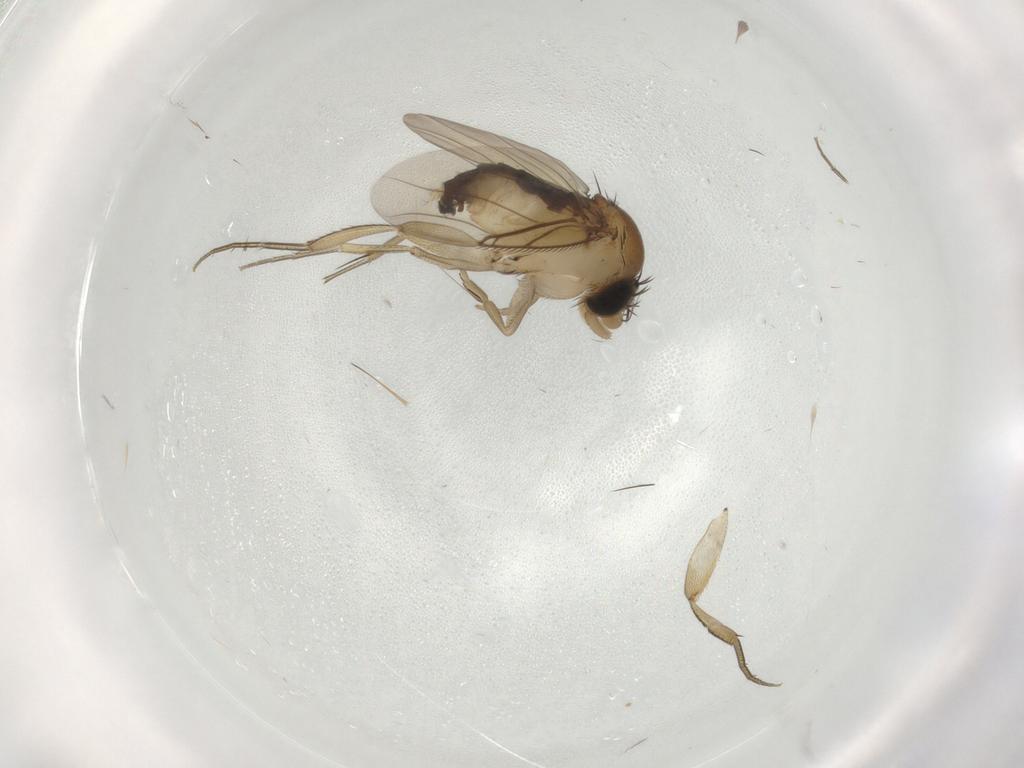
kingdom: Animalia
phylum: Arthropoda
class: Insecta
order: Diptera
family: Phoridae
